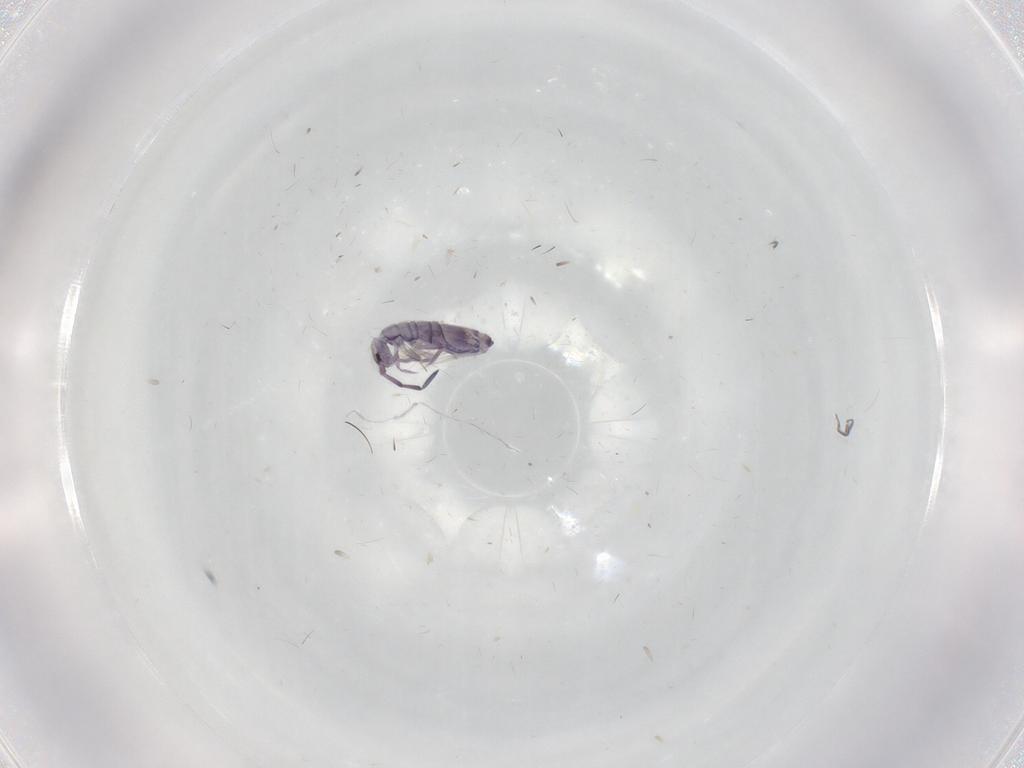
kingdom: Animalia
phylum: Arthropoda
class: Collembola
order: Entomobryomorpha
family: Entomobryidae
